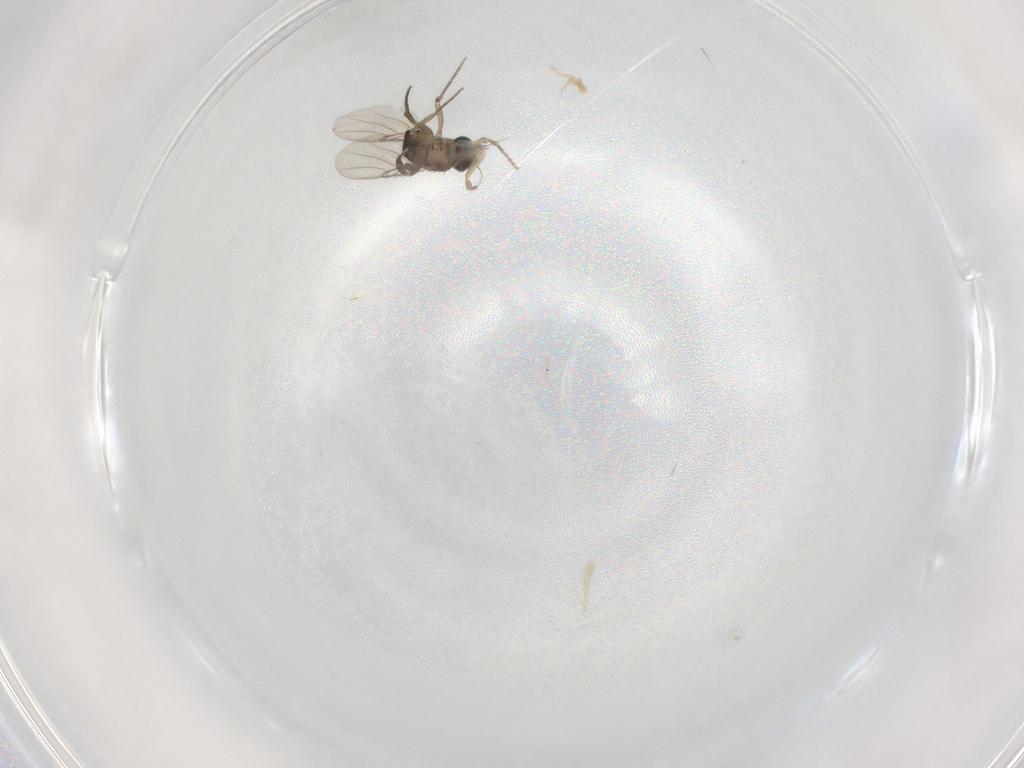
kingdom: Animalia
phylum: Arthropoda
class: Insecta
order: Diptera
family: Phoridae
